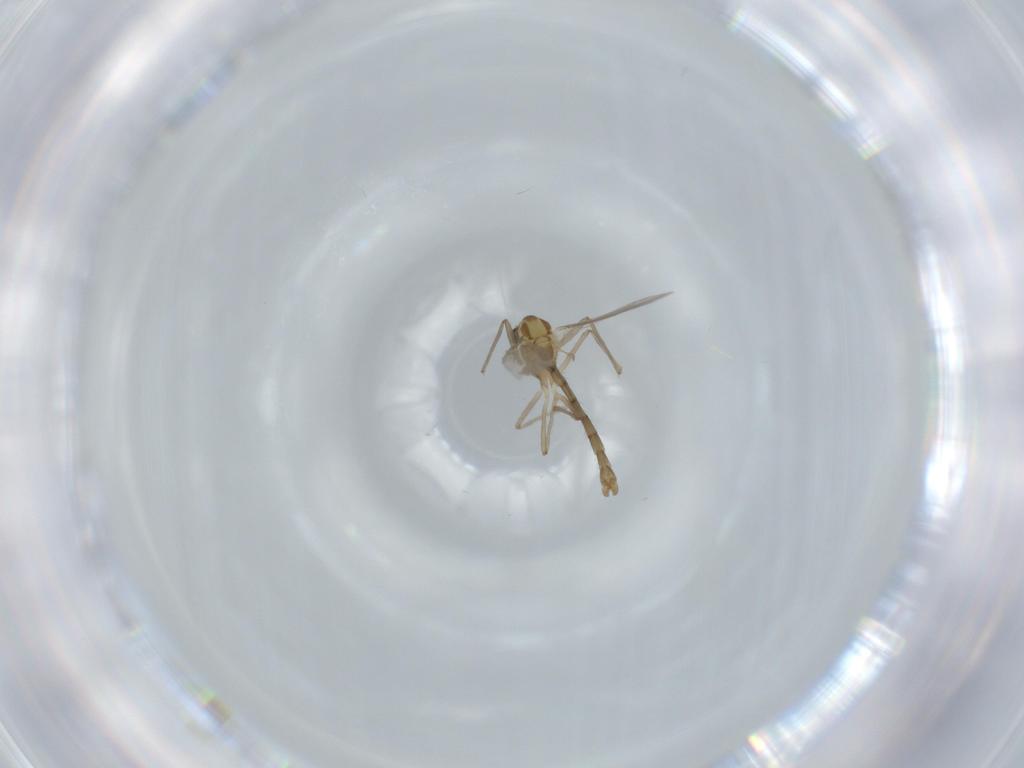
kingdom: Animalia
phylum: Arthropoda
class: Insecta
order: Diptera
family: Chironomidae
